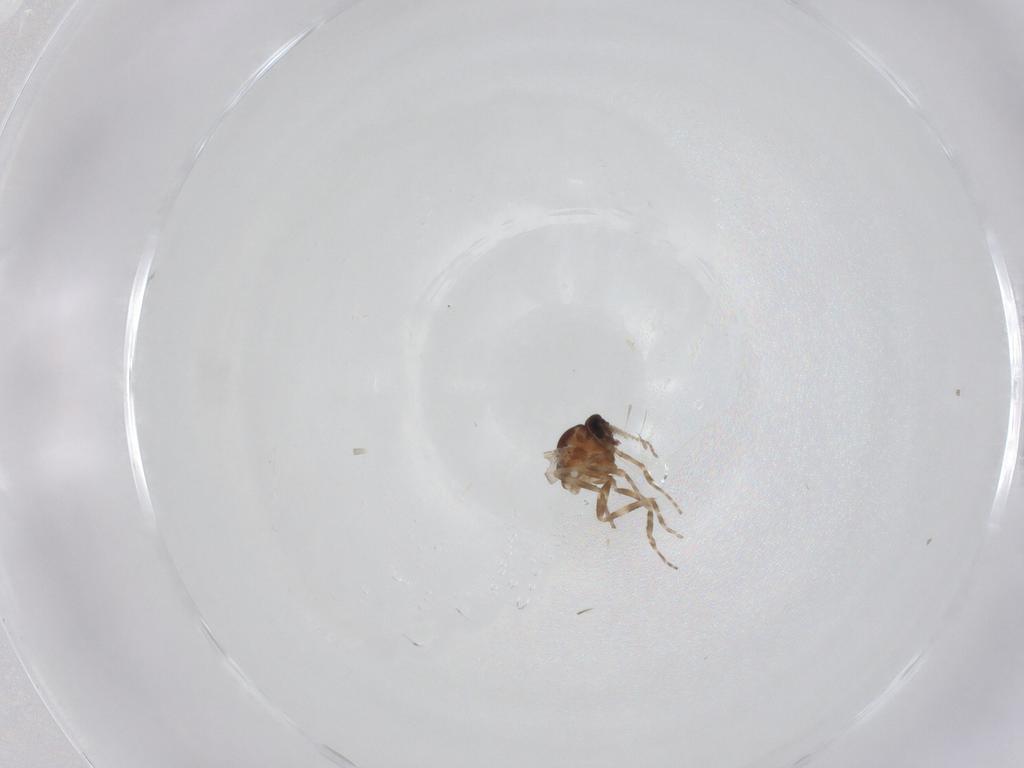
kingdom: Animalia
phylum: Arthropoda
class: Insecta
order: Diptera
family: Ceratopogonidae
